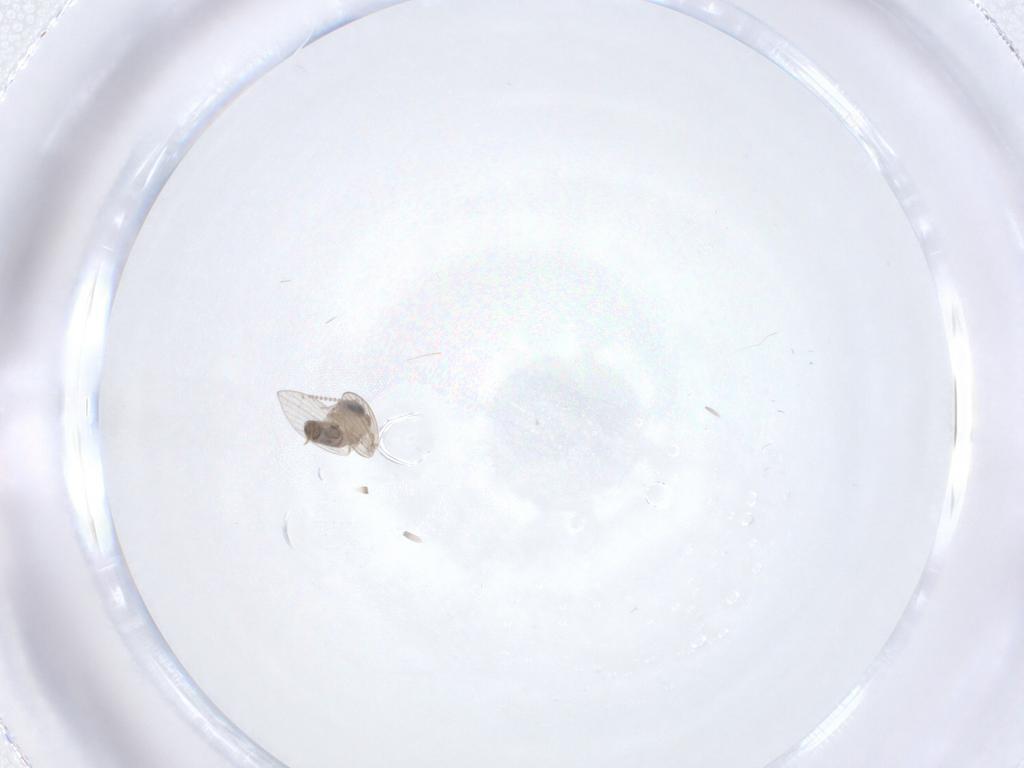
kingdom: Animalia
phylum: Arthropoda
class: Insecta
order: Diptera
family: Psychodidae
